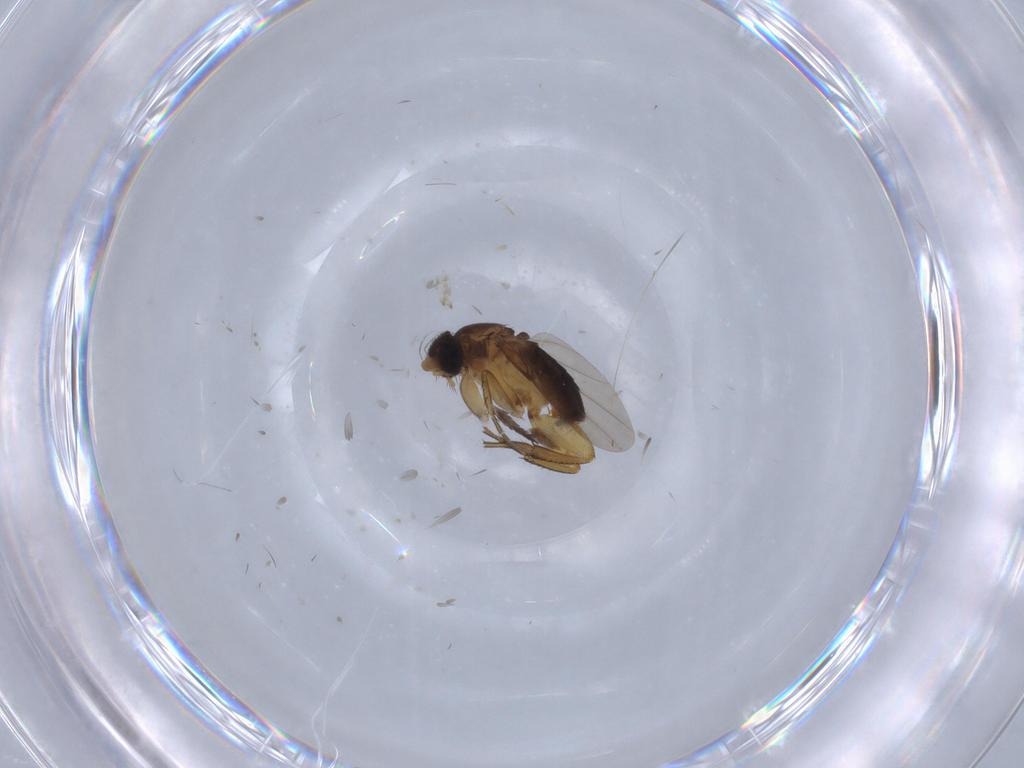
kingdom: Animalia
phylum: Arthropoda
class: Insecta
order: Diptera
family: Phoridae
